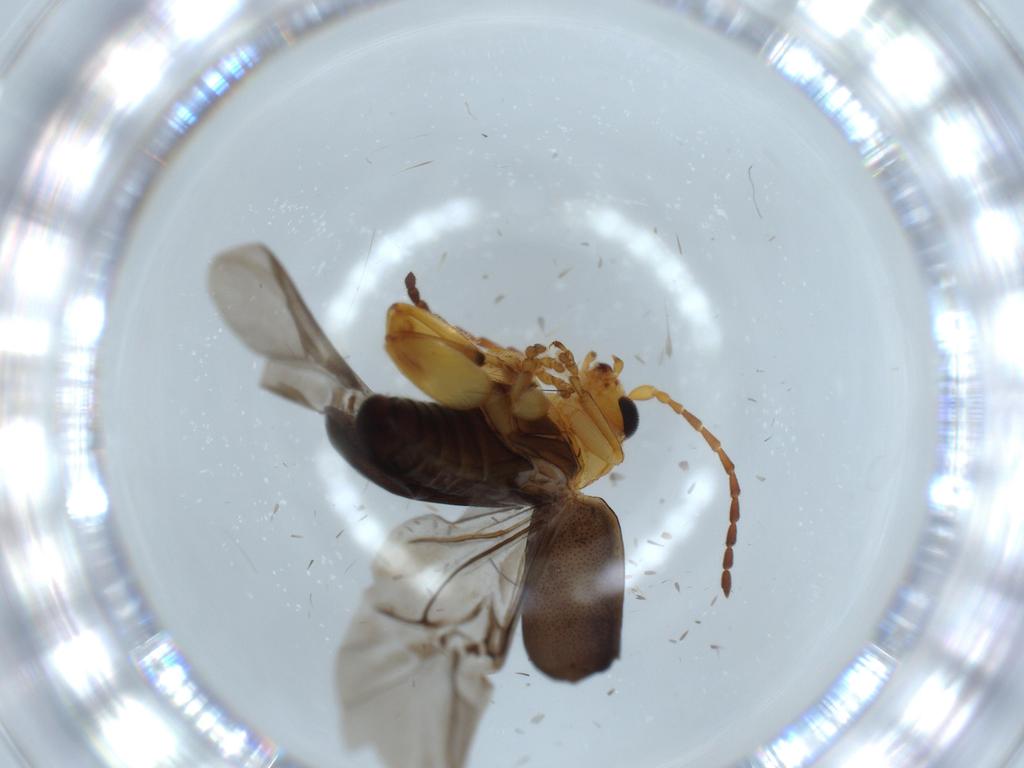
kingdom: Animalia
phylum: Arthropoda
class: Insecta
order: Coleoptera
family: Chrysomelidae
